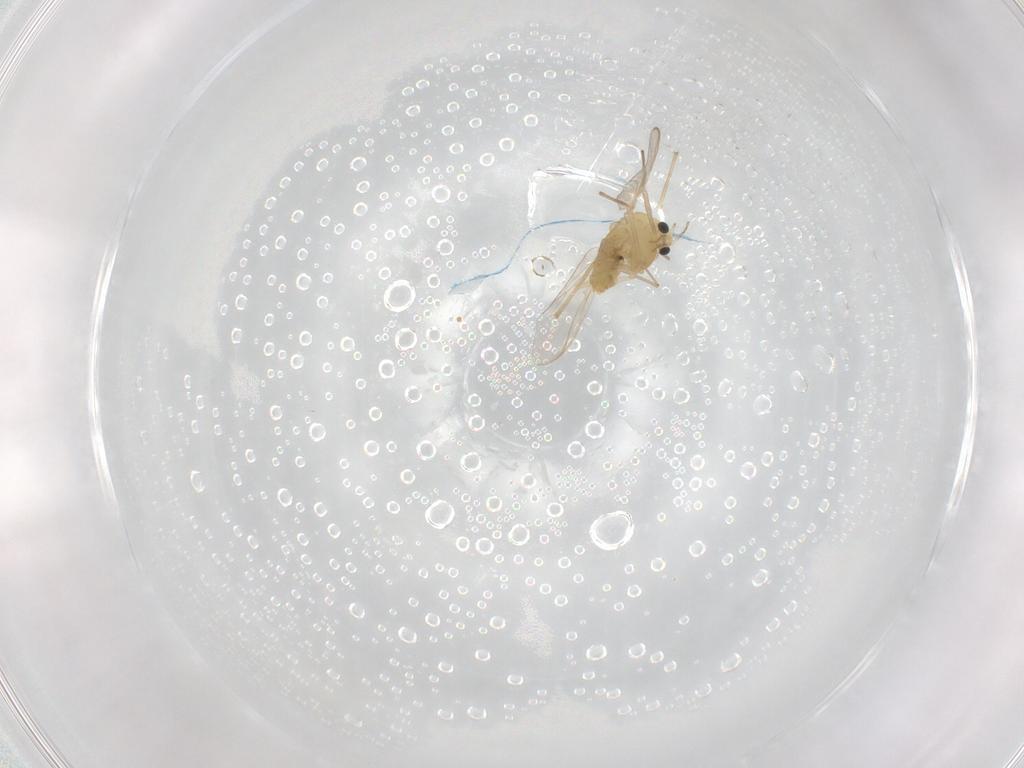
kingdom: Animalia
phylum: Arthropoda
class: Insecta
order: Diptera
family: Chironomidae
